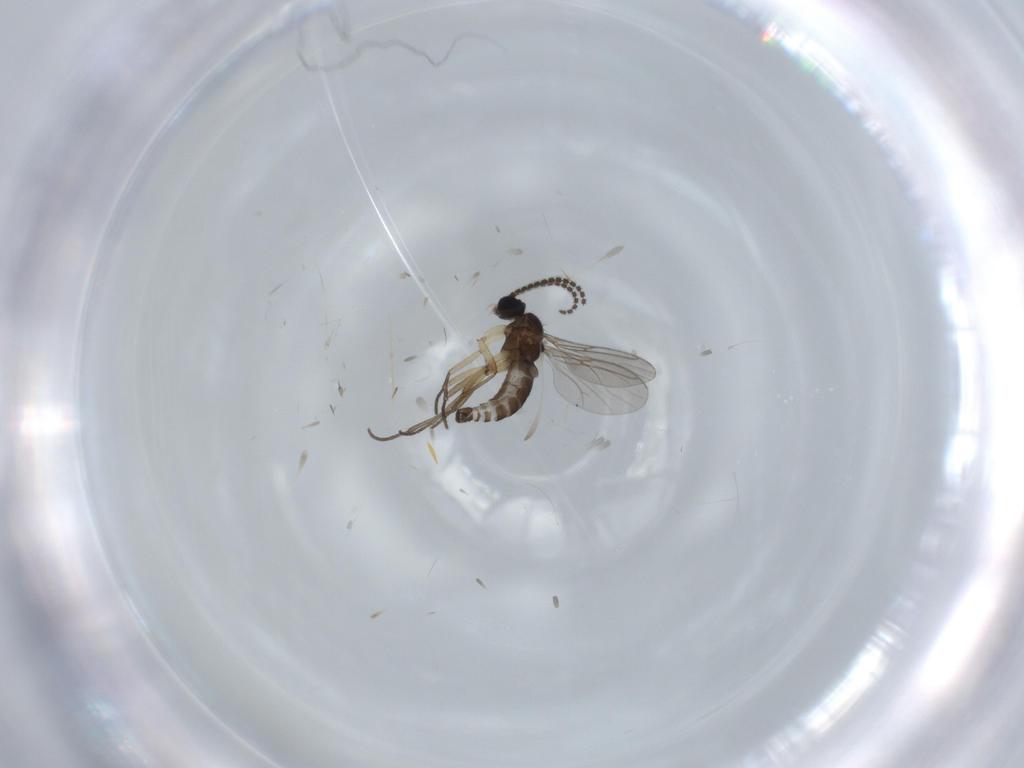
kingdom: Animalia
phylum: Arthropoda
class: Insecta
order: Diptera
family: Sciaridae
